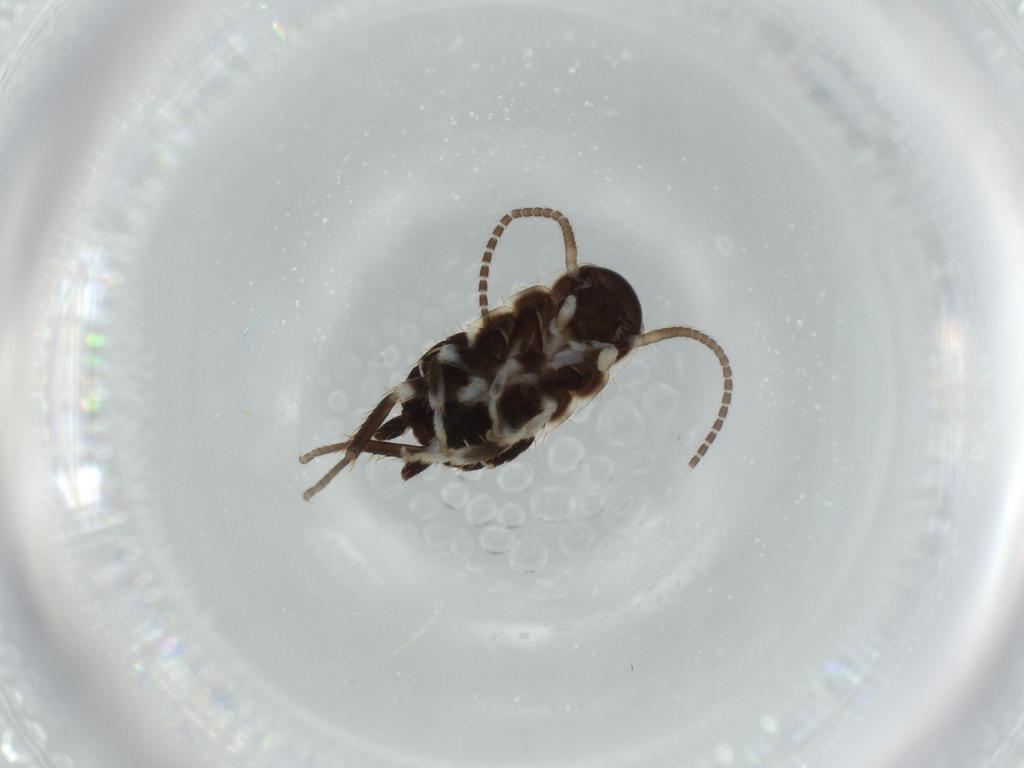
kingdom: Animalia
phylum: Arthropoda
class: Insecta
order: Blattodea
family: Ectobiidae
